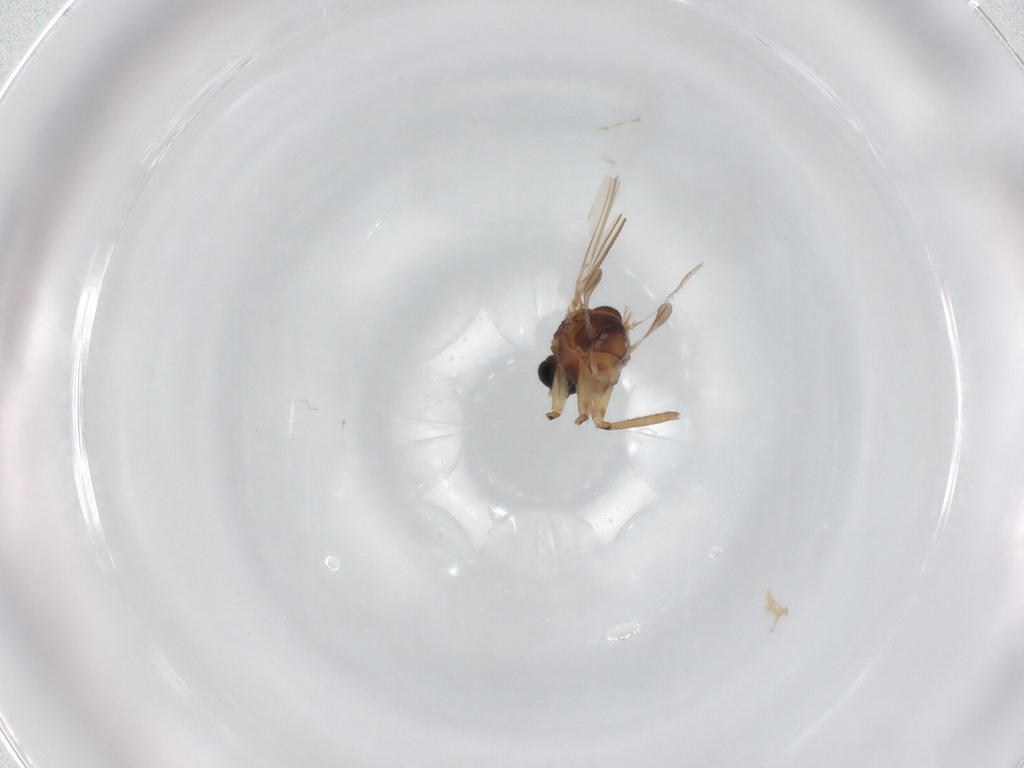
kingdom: Animalia
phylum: Arthropoda
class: Insecta
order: Diptera
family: Sciaridae
